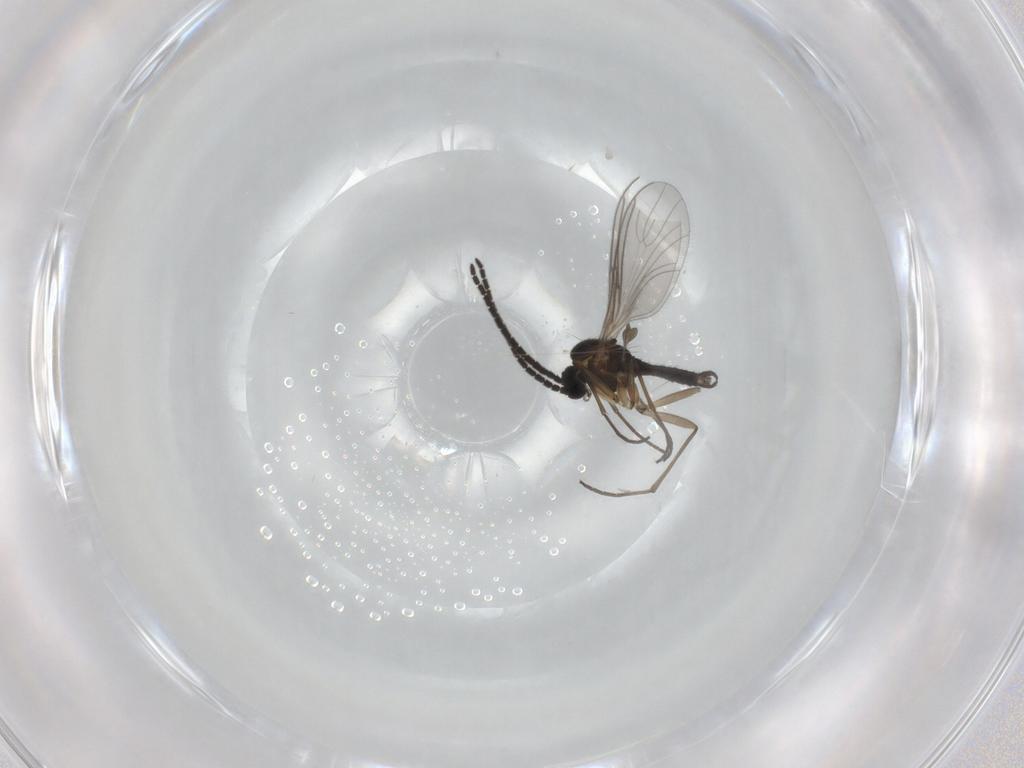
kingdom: Animalia
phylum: Arthropoda
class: Insecta
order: Diptera
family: Sciaridae
